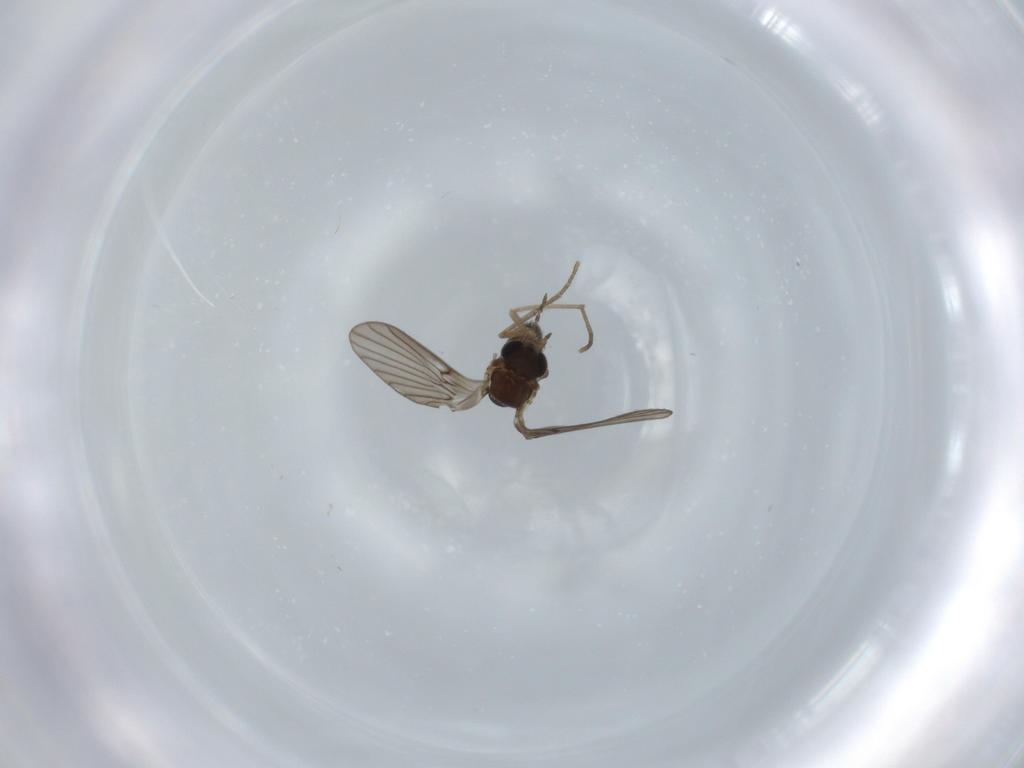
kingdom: Animalia
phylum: Arthropoda
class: Insecta
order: Diptera
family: Psychodidae
